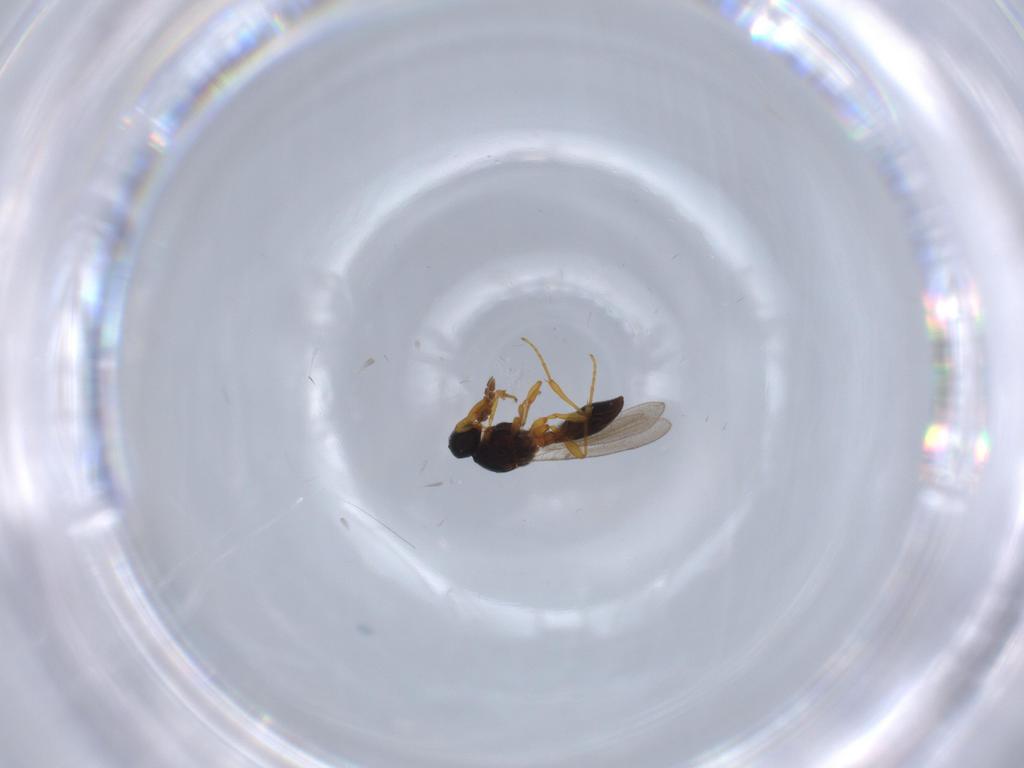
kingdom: Animalia
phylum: Arthropoda
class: Insecta
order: Hymenoptera
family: Platygastridae
